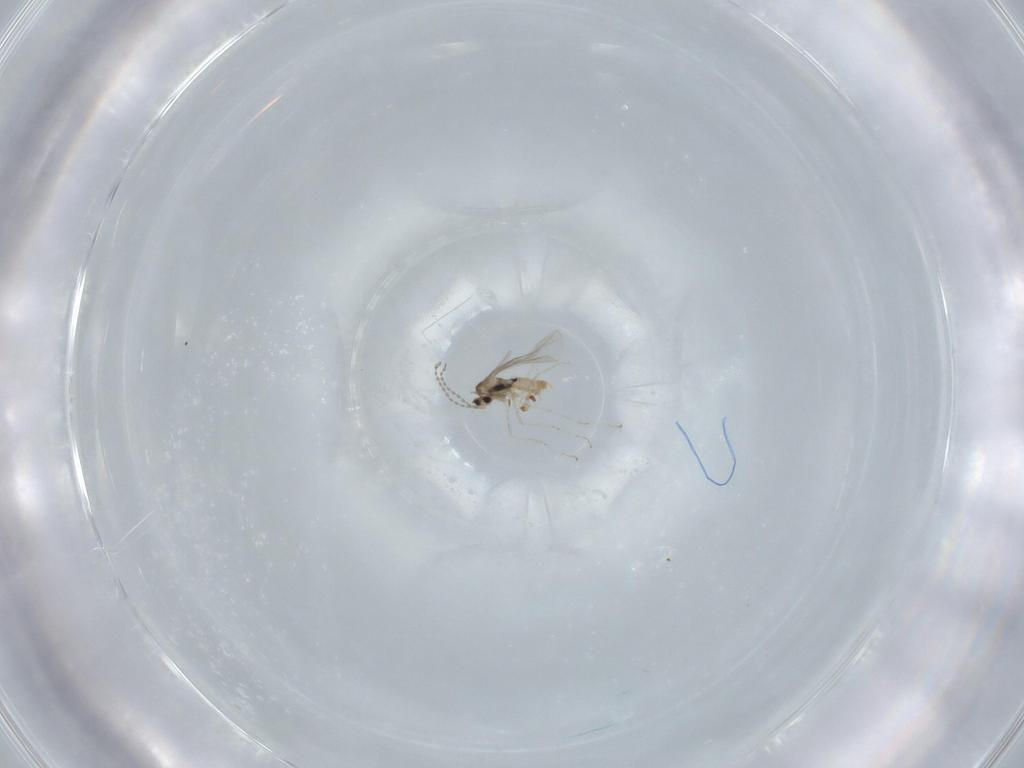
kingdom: Animalia
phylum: Arthropoda
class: Insecta
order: Diptera
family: Cecidomyiidae
